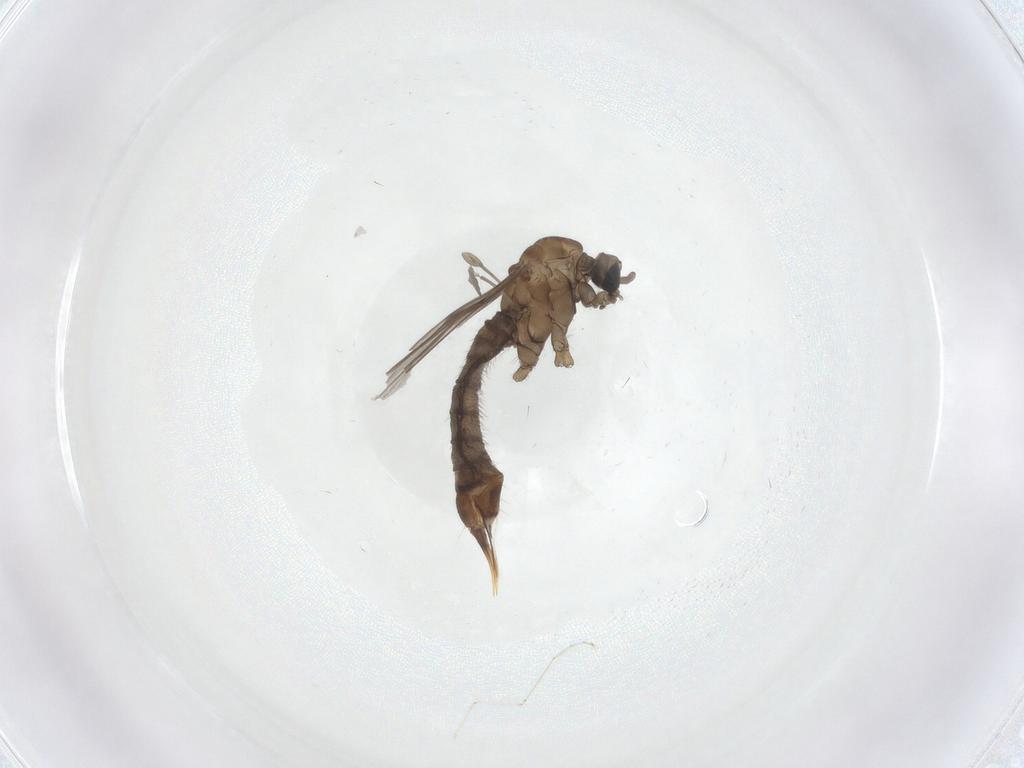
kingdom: Animalia
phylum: Arthropoda
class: Insecta
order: Diptera
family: Limoniidae
